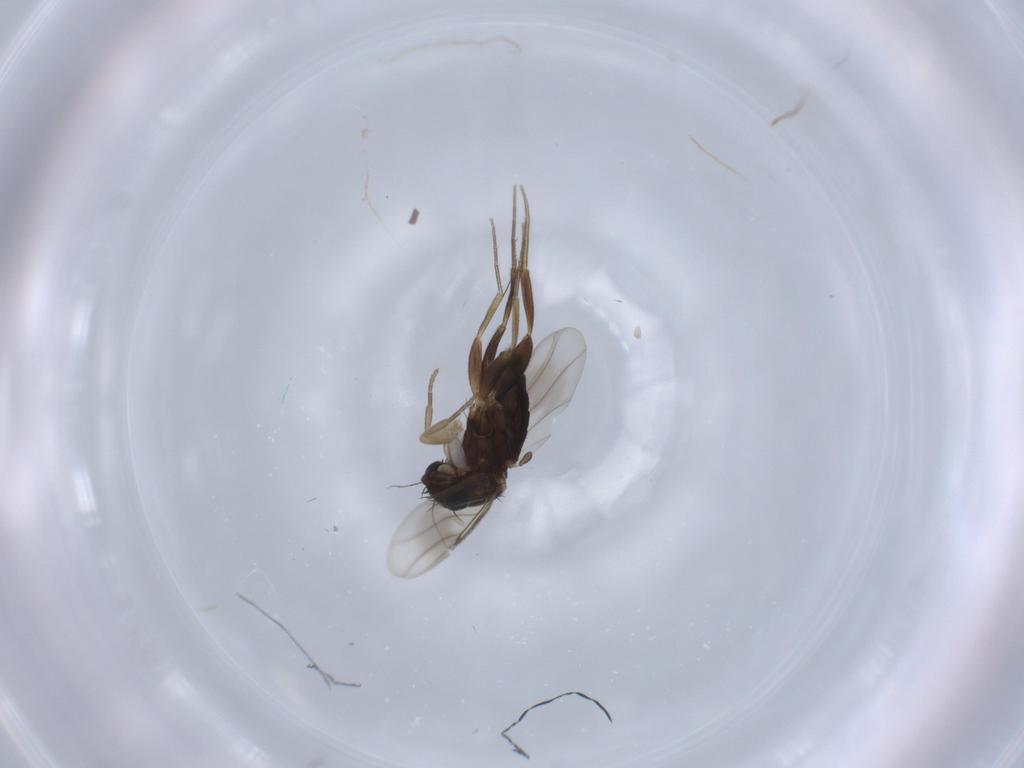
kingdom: Animalia
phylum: Arthropoda
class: Insecta
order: Diptera
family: Phoridae
